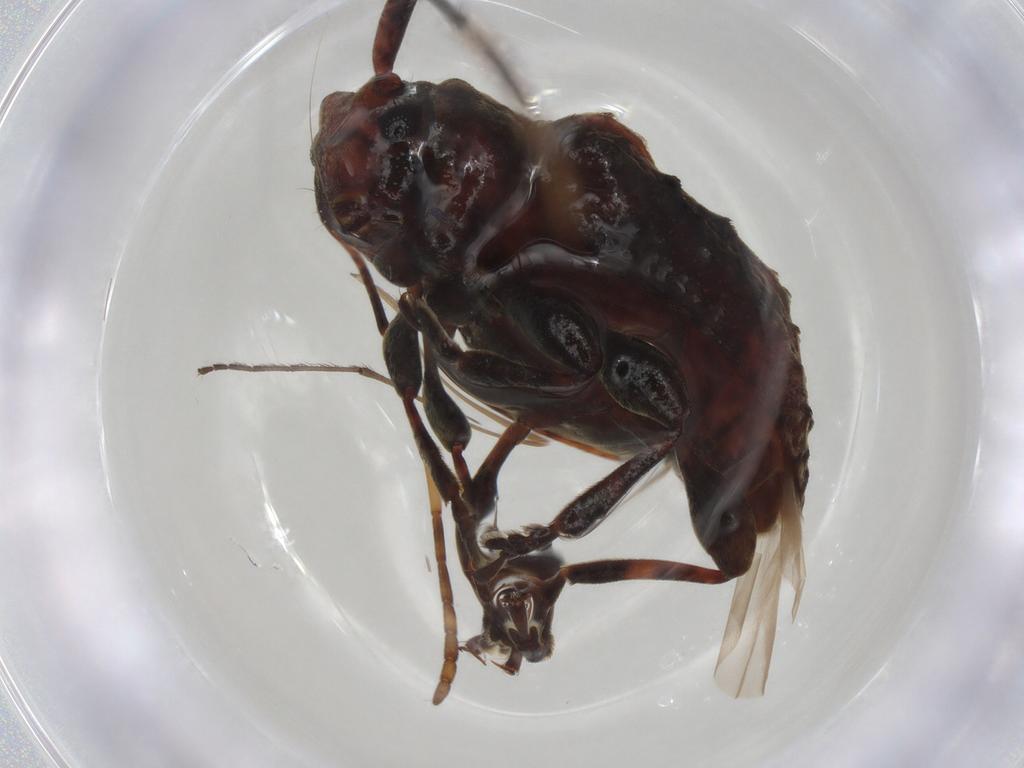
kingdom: Animalia
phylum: Arthropoda
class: Insecta
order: Coleoptera
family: Cerambycidae
